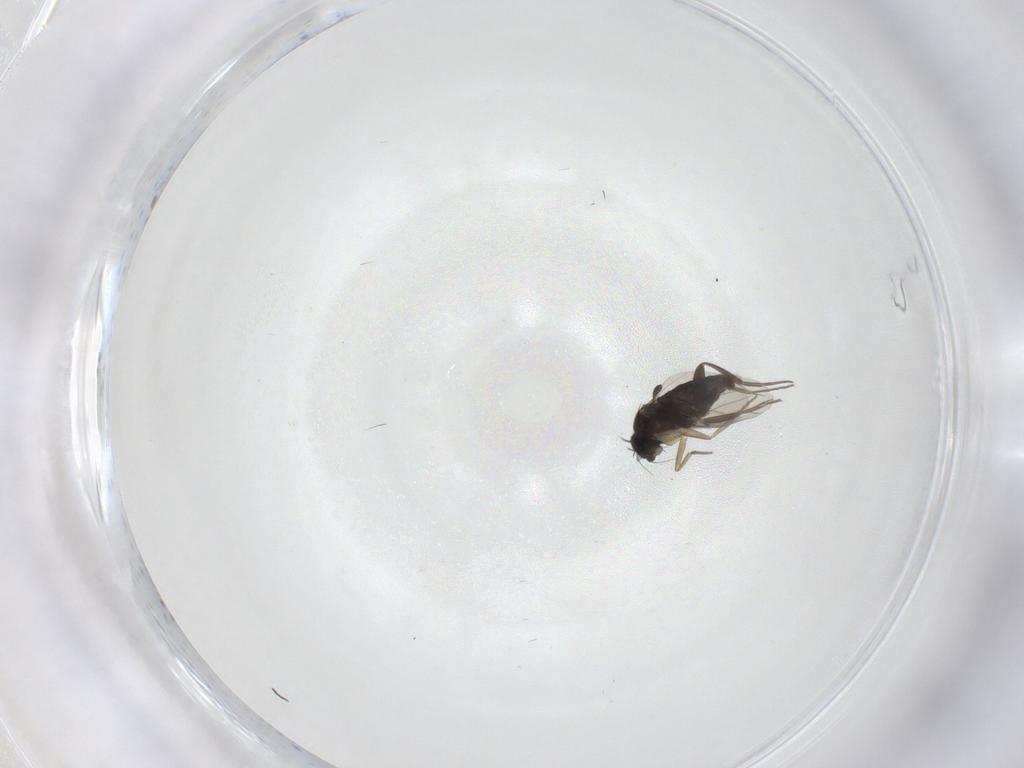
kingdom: Animalia
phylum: Arthropoda
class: Insecta
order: Diptera
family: Phoridae
